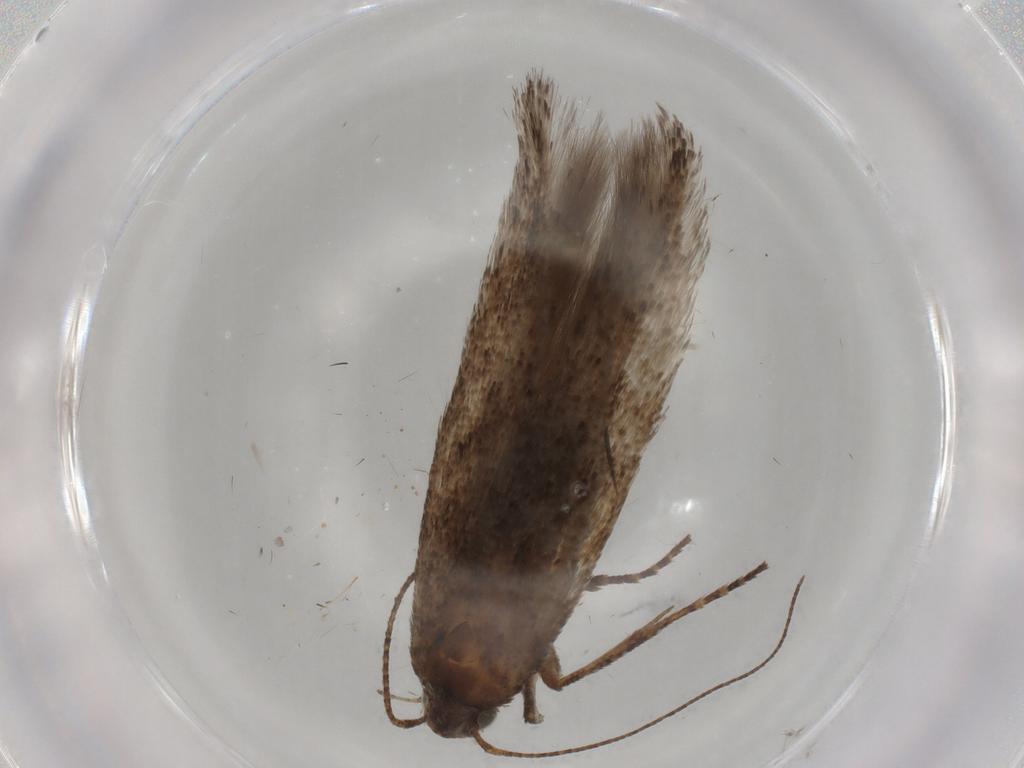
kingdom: Animalia
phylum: Arthropoda
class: Insecta
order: Lepidoptera
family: Gelechiidae
